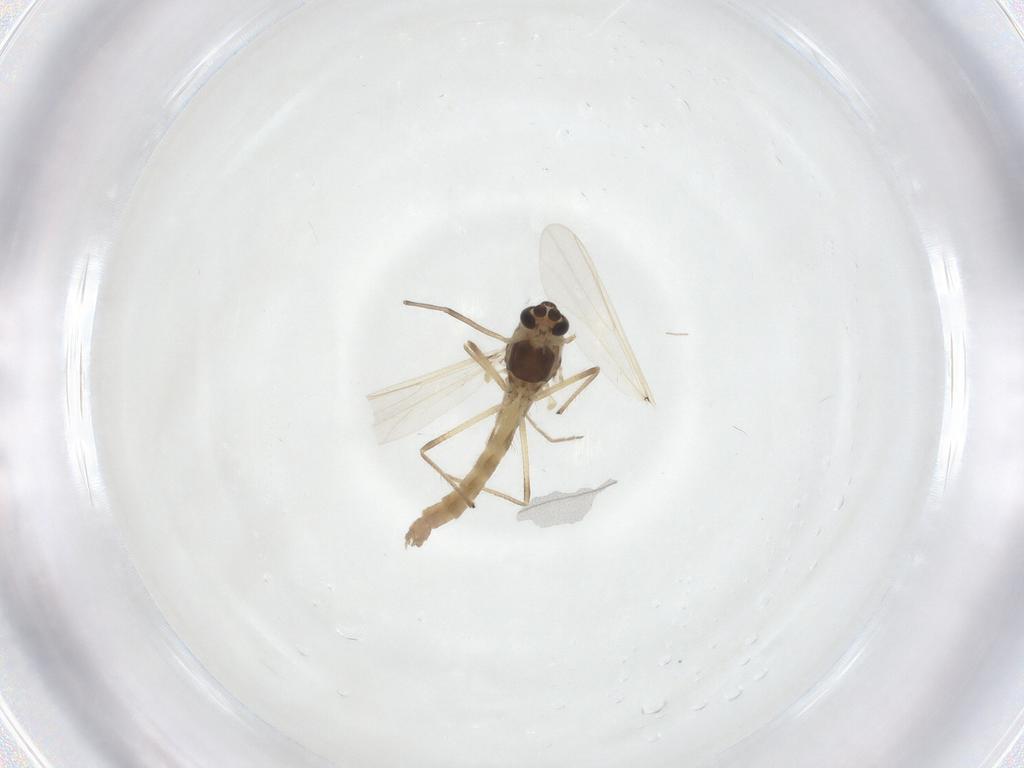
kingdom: Animalia
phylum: Arthropoda
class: Insecta
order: Diptera
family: Chironomidae
